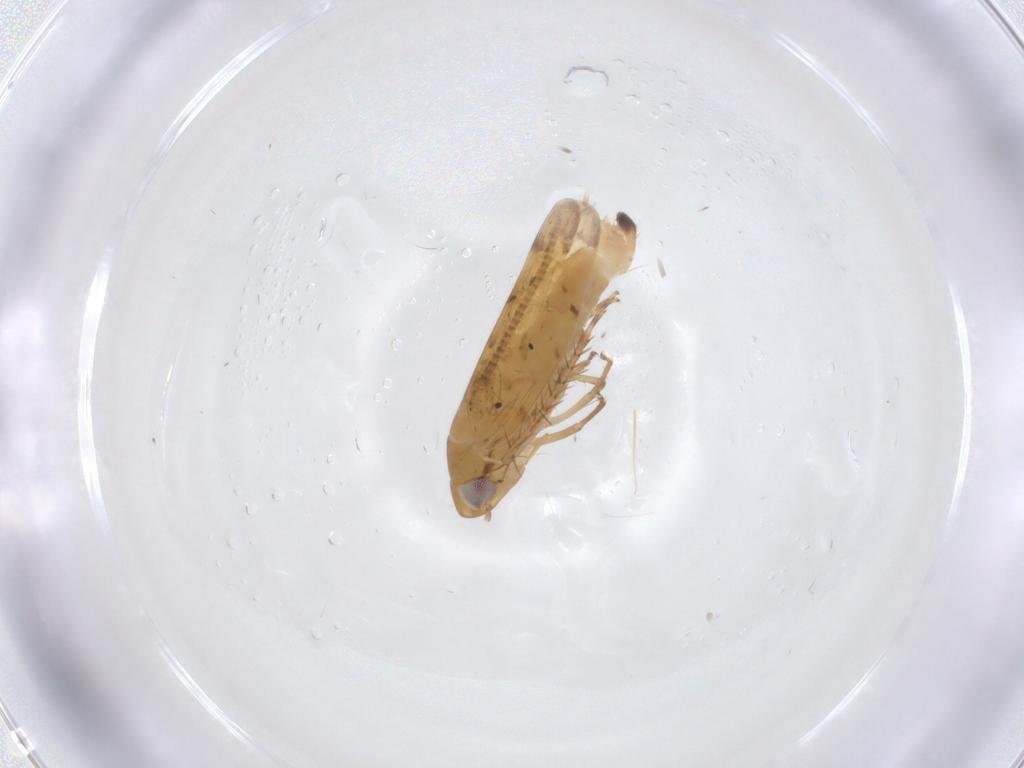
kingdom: Animalia
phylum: Arthropoda
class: Insecta
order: Hemiptera
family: Cicadellidae
